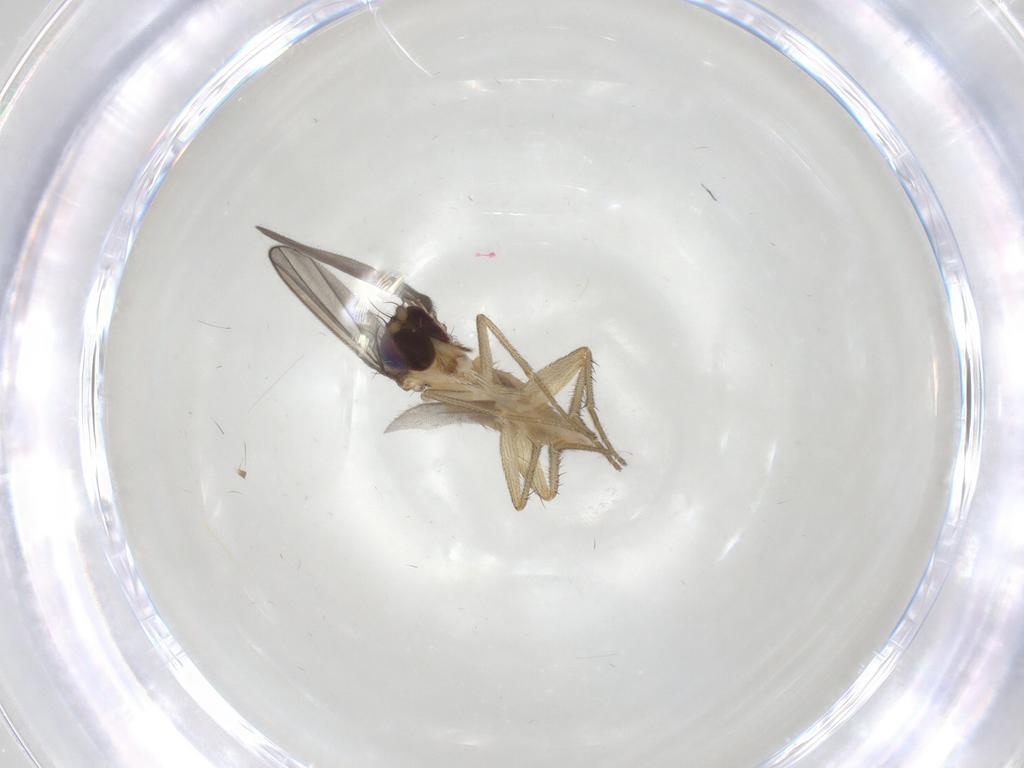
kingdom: Animalia
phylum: Arthropoda
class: Insecta
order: Diptera
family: Dolichopodidae
